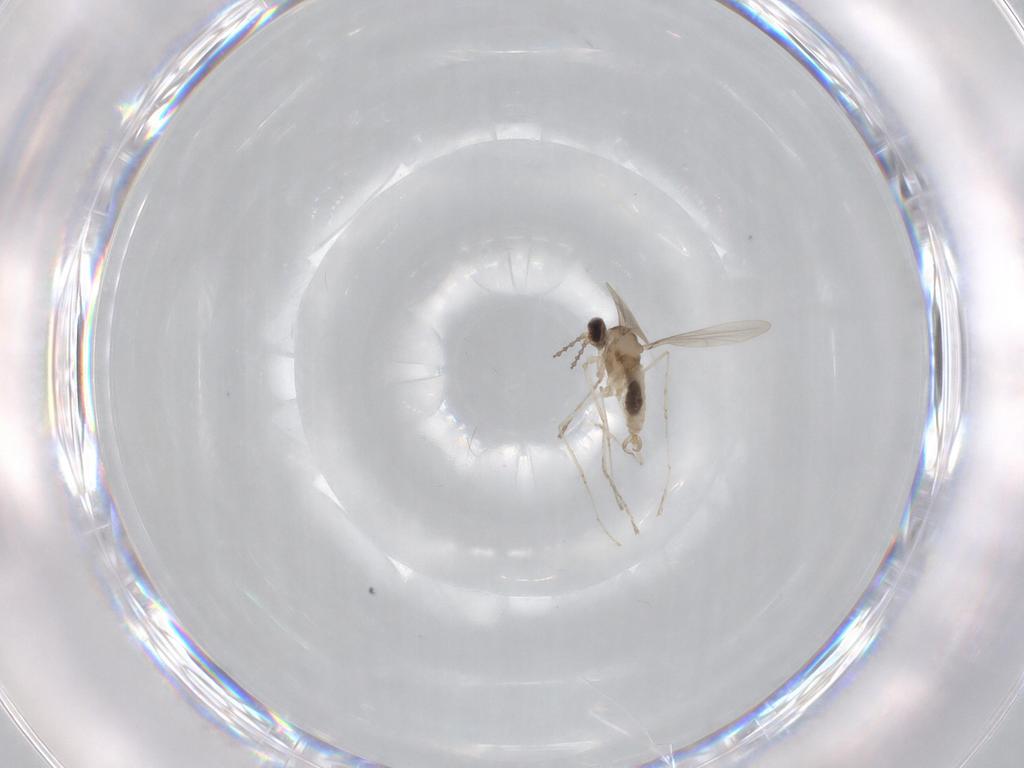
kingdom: Animalia
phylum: Arthropoda
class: Insecta
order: Diptera
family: Cecidomyiidae
